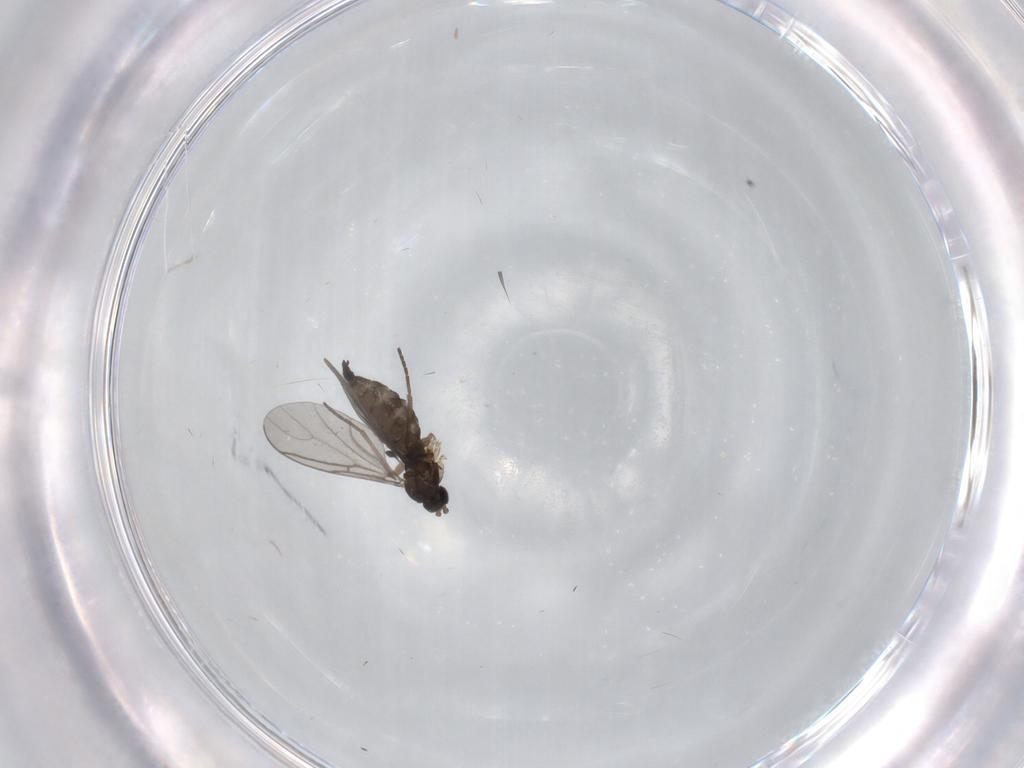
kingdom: Animalia
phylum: Arthropoda
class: Insecta
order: Diptera
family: Sciaridae
